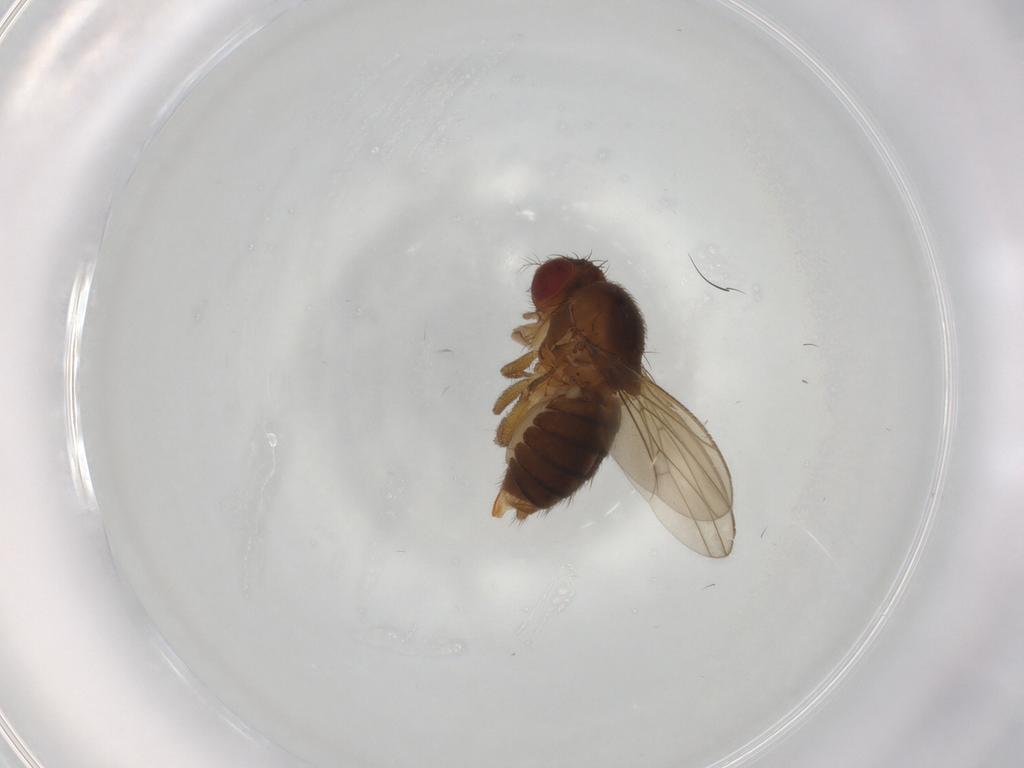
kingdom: Animalia
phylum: Arthropoda
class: Insecta
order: Diptera
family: Drosophilidae
